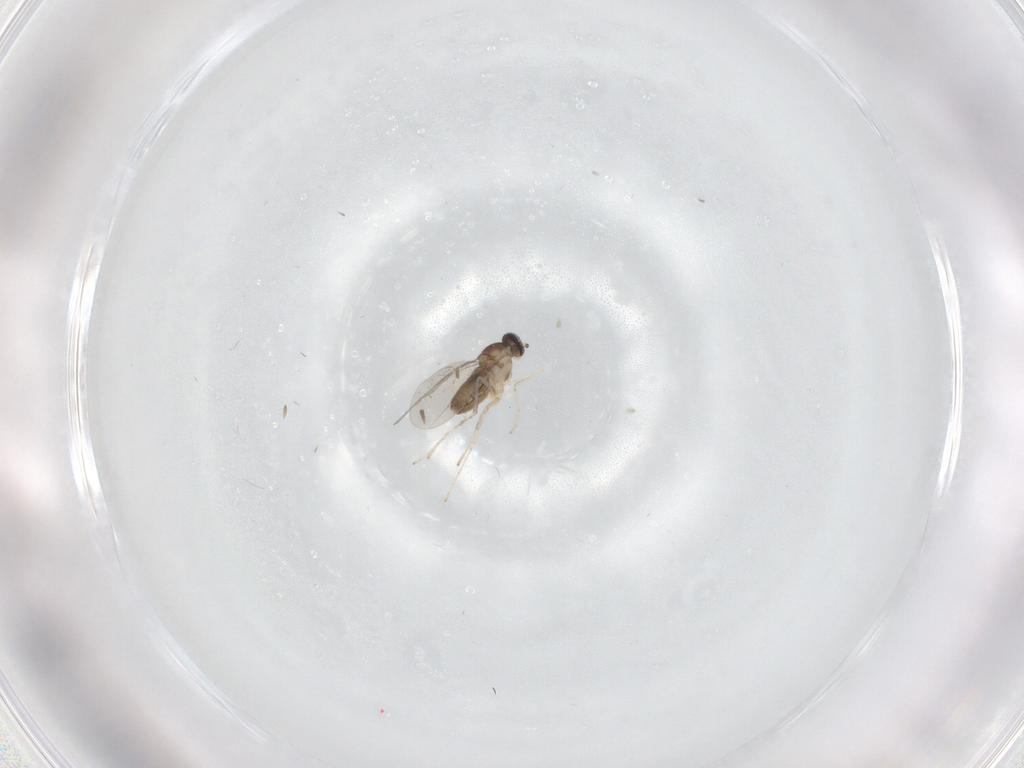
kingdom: Animalia
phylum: Arthropoda
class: Insecta
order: Diptera
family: Cecidomyiidae
